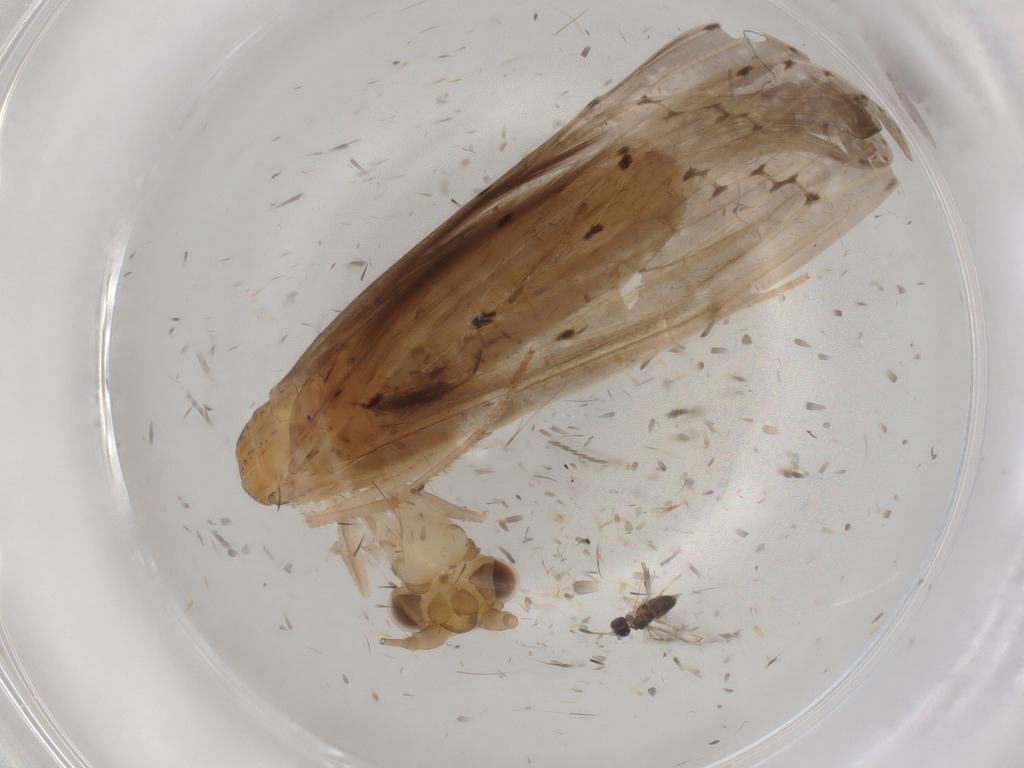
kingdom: Animalia
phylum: Arthropoda
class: Insecta
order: Trichoptera
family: Leptoceridae
